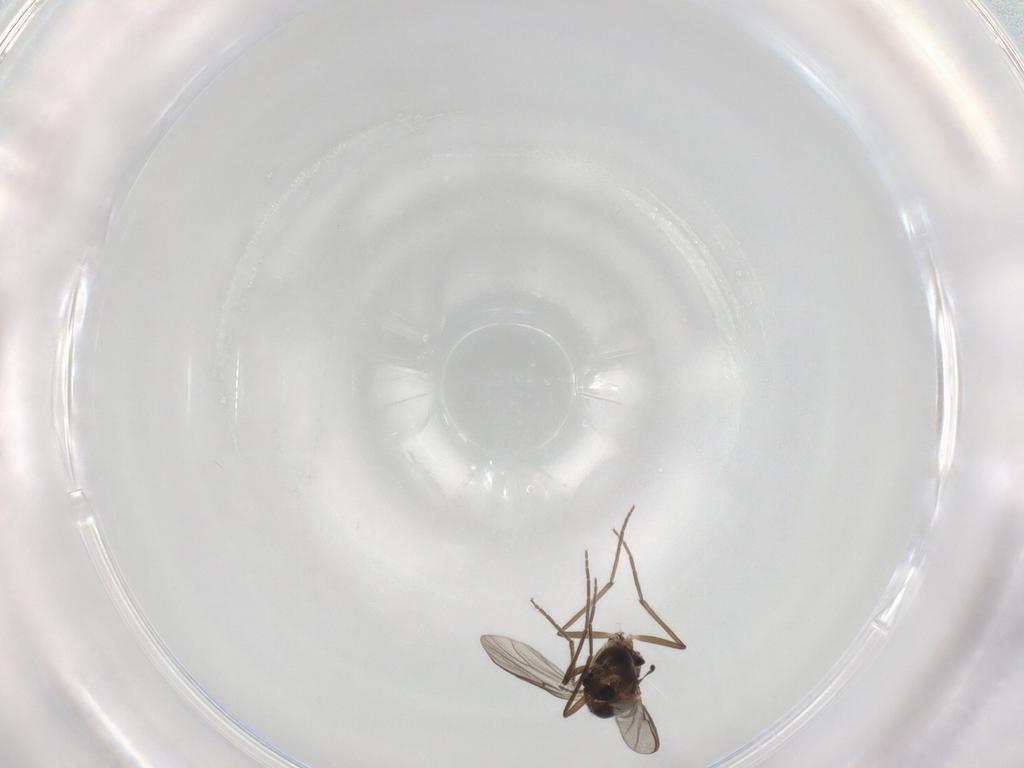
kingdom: Animalia
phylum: Arthropoda
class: Insecta
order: Diptera
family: Chironomidae
